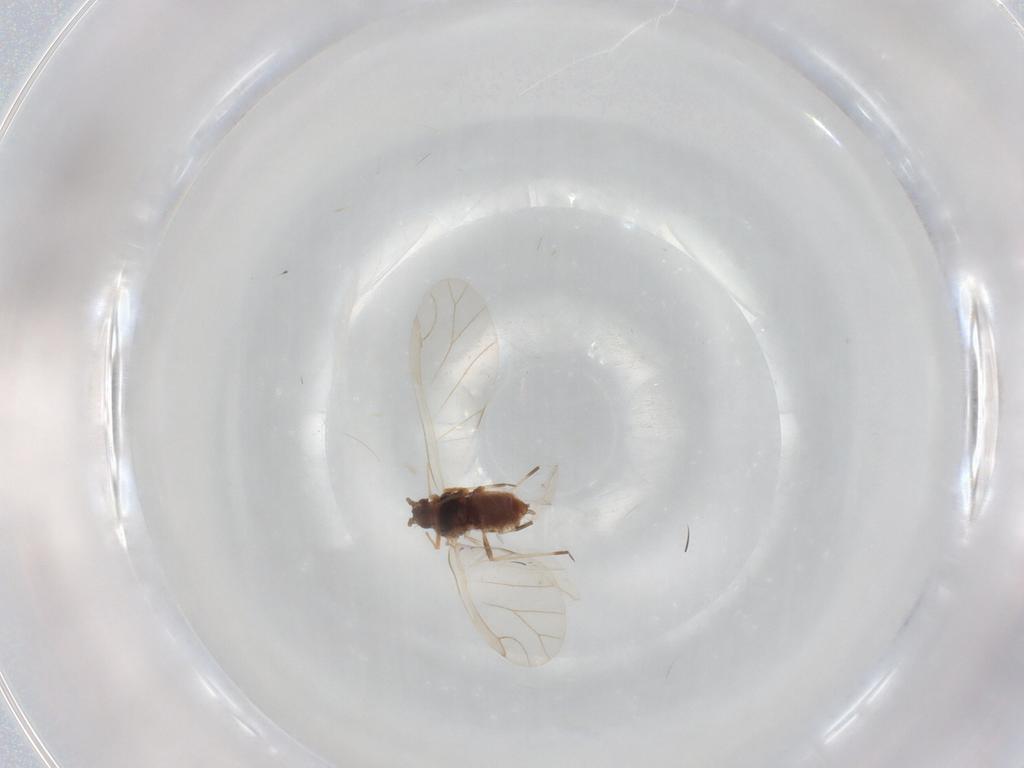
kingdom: Animalia
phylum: Arthropoda
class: Insecta
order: Hemiptera
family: Aphididae
